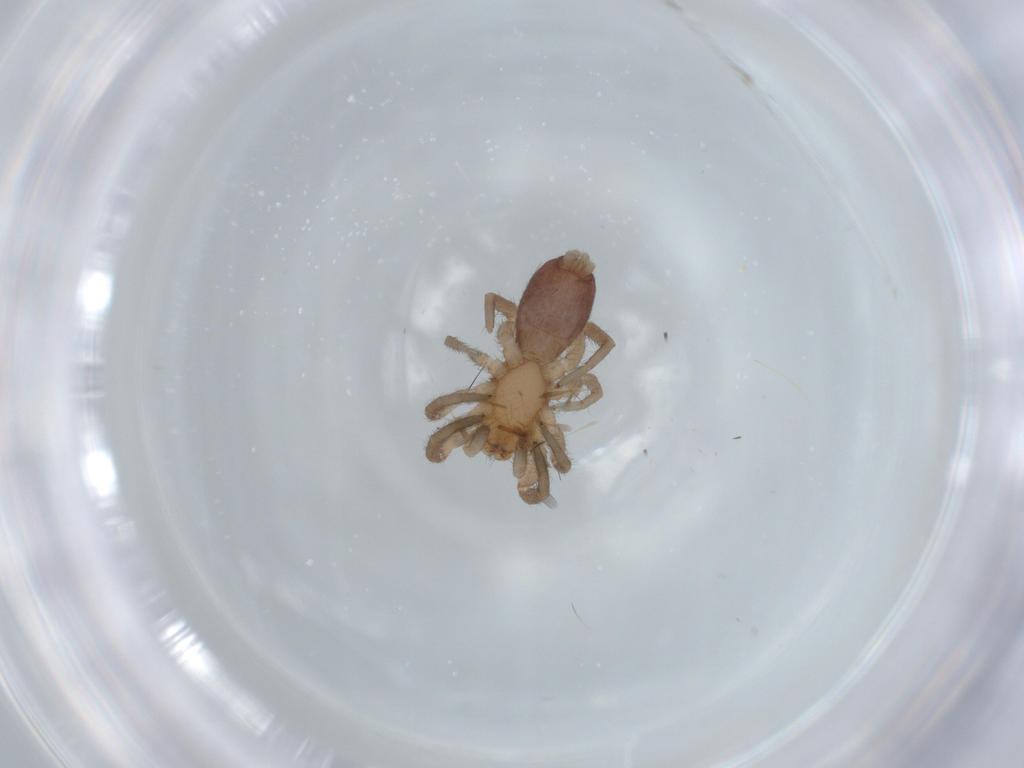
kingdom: Animalia
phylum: Arthropoda
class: Arachnida
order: Araneae
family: Gnaphosidae
